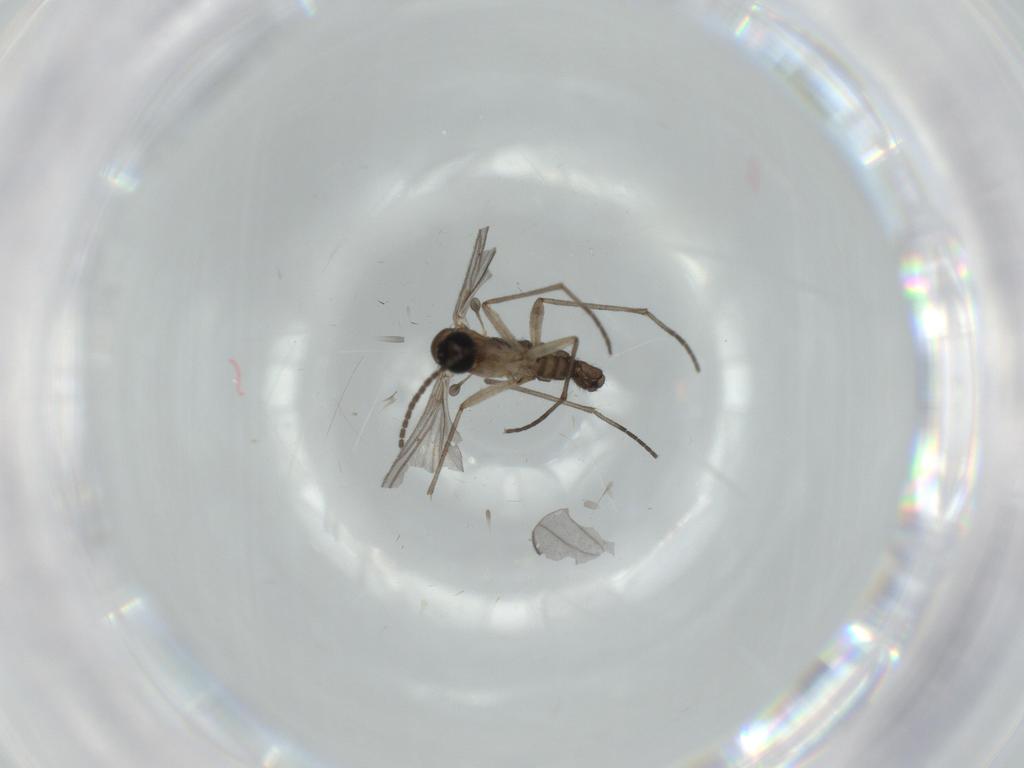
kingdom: Animalia
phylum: Arthropoda
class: Insecta
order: Diptera
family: Sciaridae
